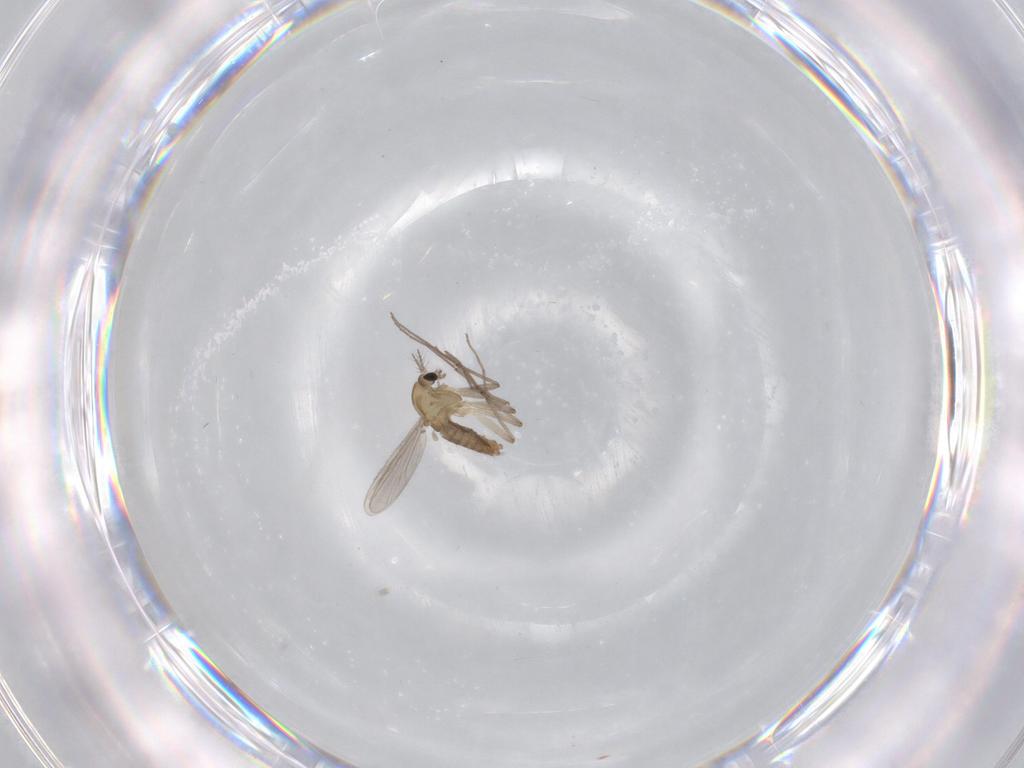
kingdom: Animalia
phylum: Arthropoda
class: Insecta
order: Diptera
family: Chironomidae
